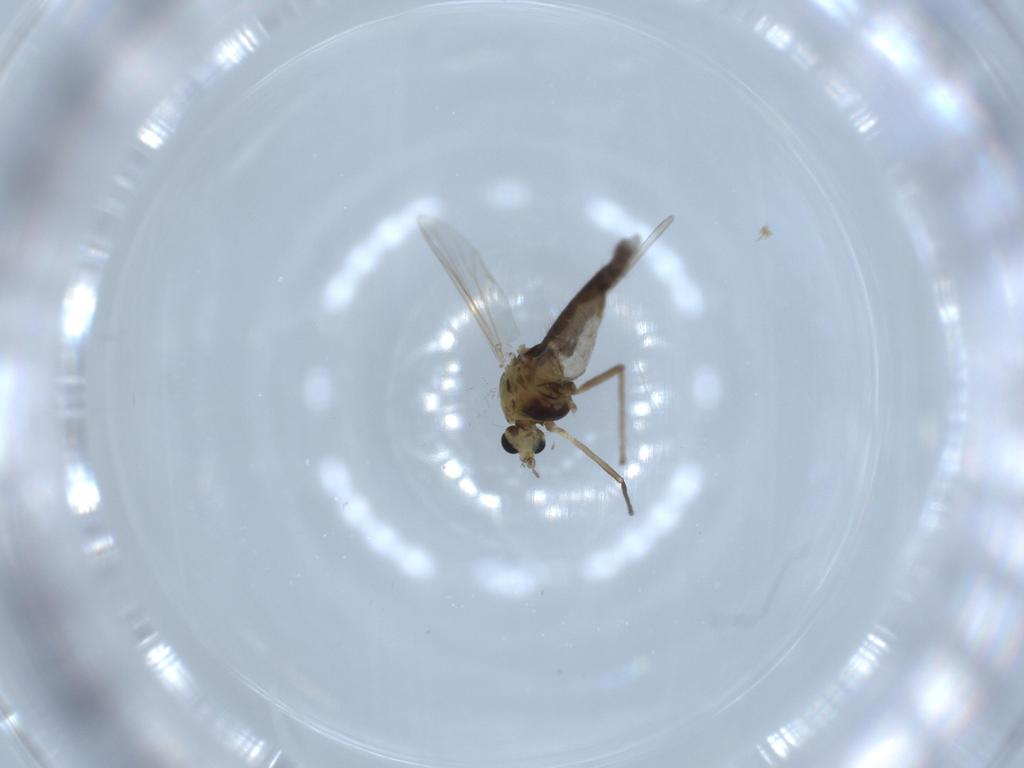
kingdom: Animalia
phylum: Arthropoda
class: Insecta
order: Diptera
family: Chironomidae
